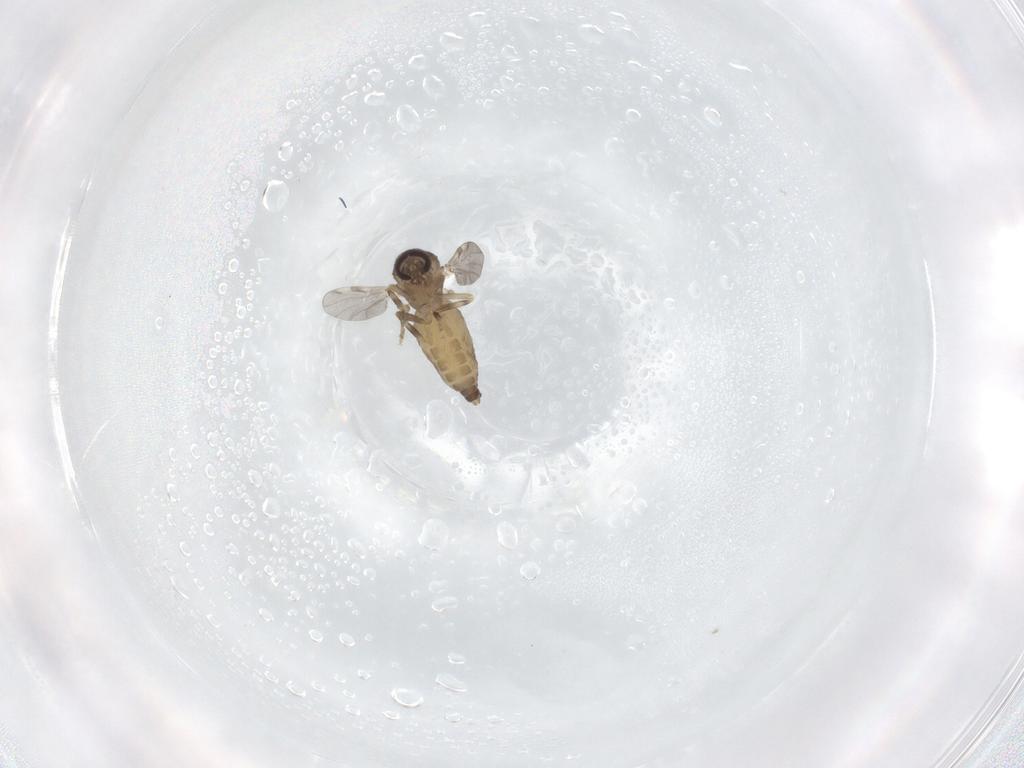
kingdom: Animalia
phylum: Arthropoda
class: Insecta
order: Diptera
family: Ceratopogonidae
